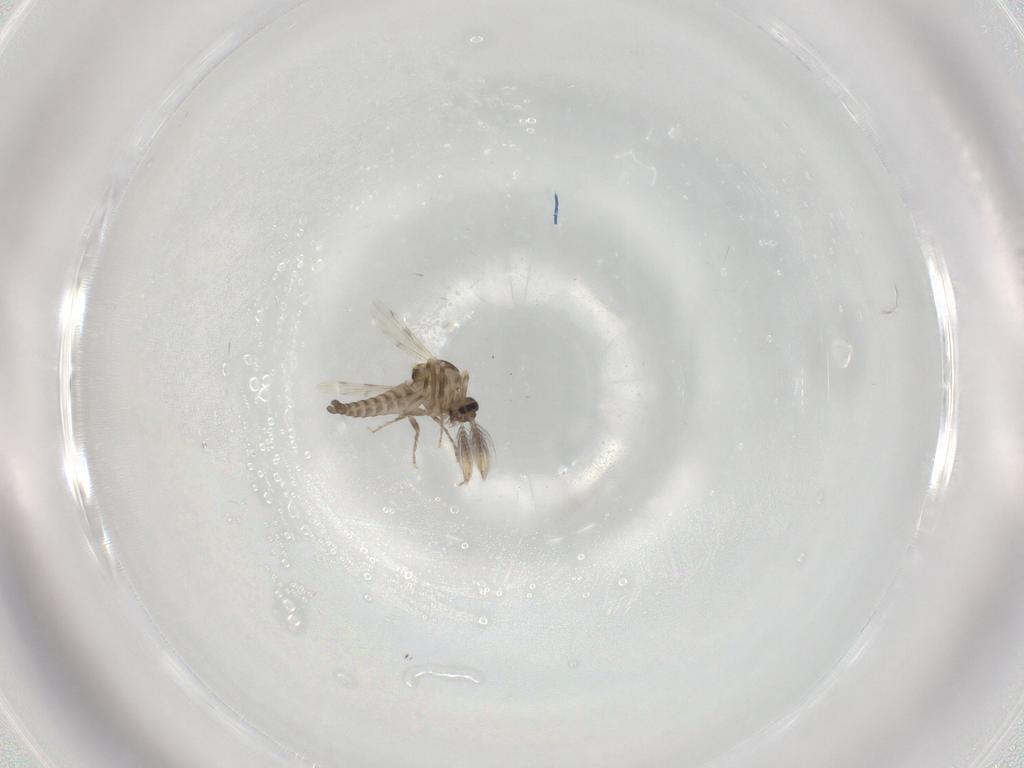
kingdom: Animalia
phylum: Arthropoda
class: Insecta
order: Diptera
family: Ceratopogonidae
